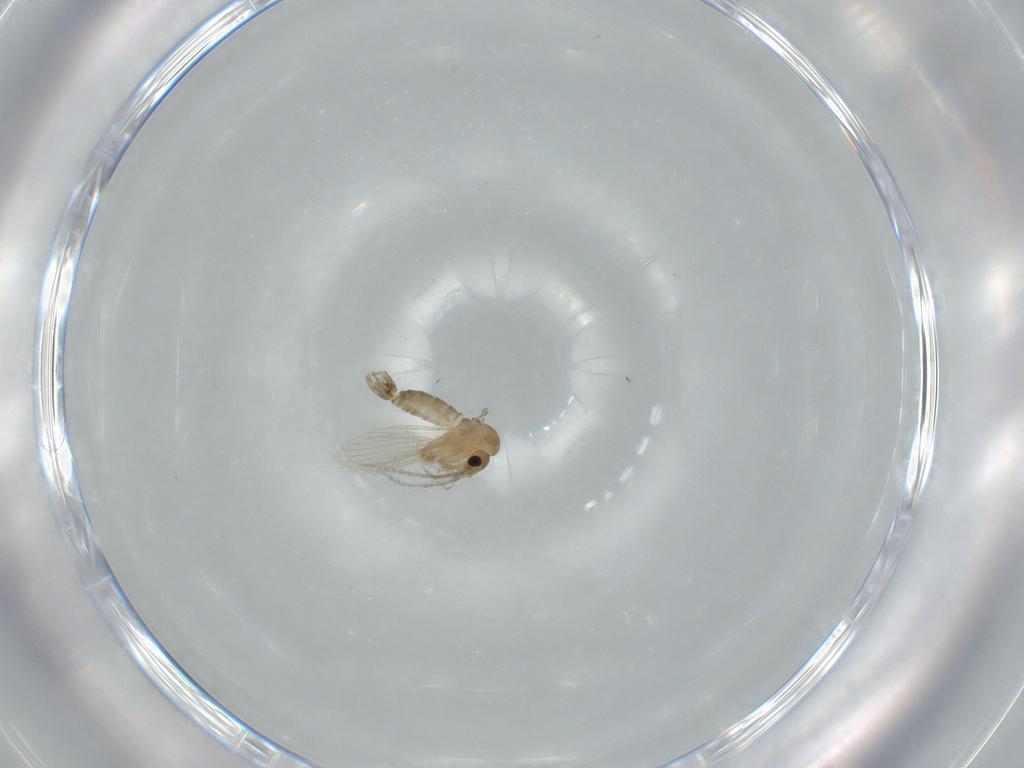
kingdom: Animalia
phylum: Arthropoda
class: Insecta
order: Diptera
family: Psychodidae
